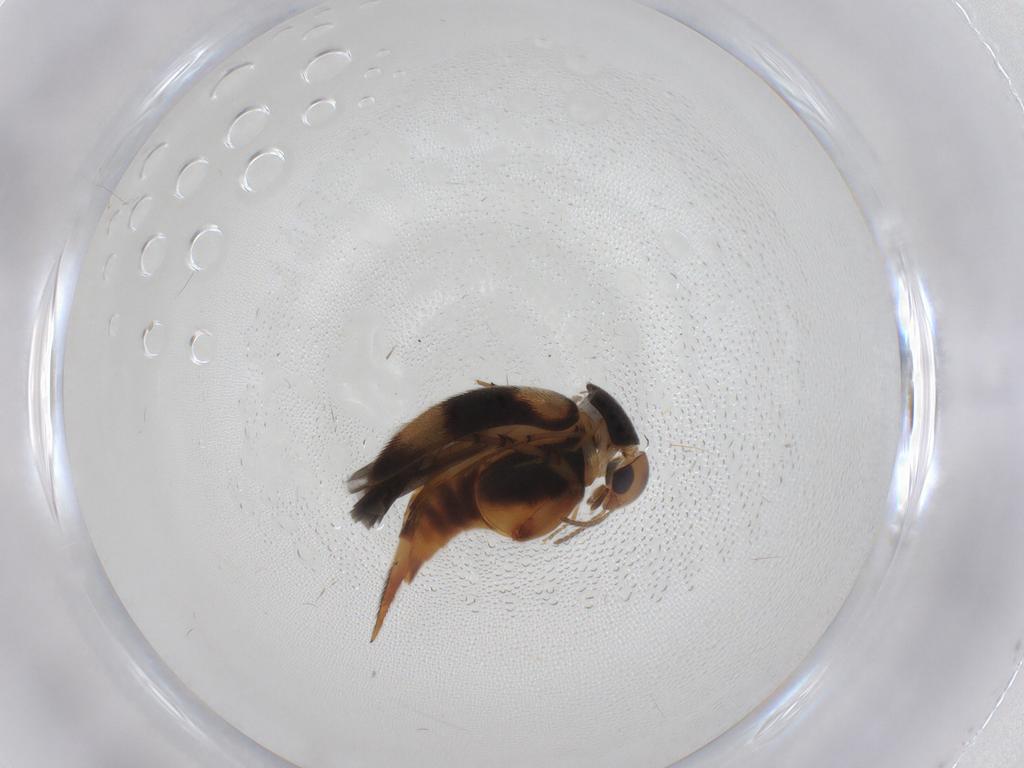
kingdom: Animalia
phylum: Arthropoda
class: Insecta
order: Coleoptera
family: Mordellidae
